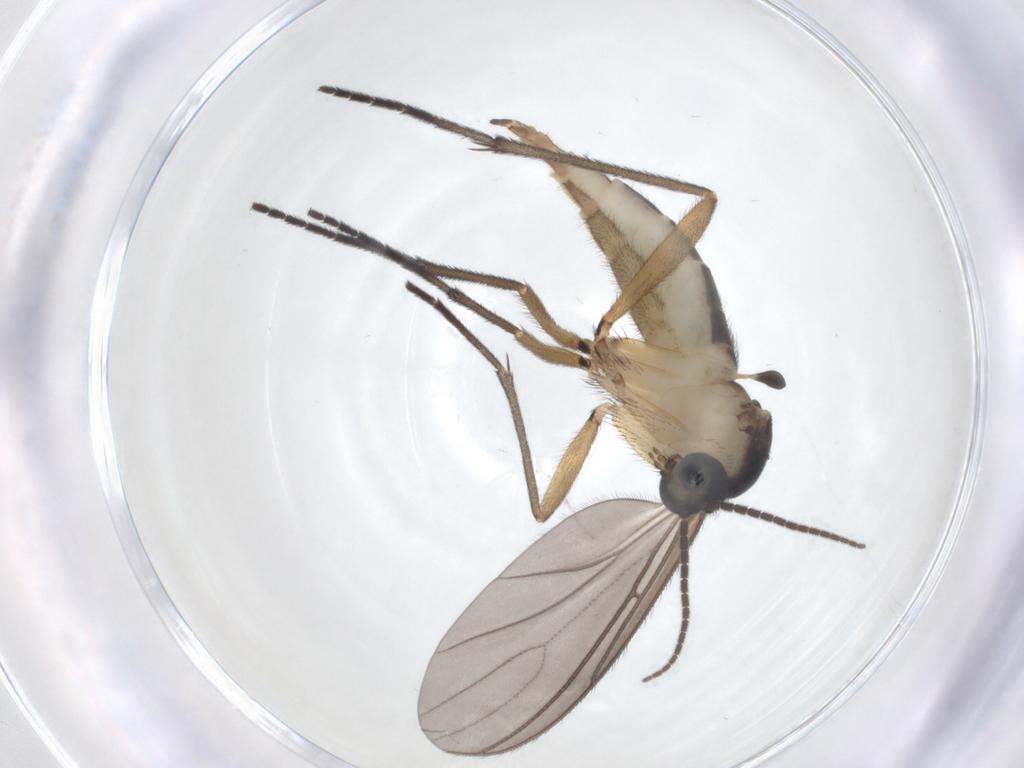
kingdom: Animalia
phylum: Arthropoda
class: Insecta
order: Diptera
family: Sciaridae
